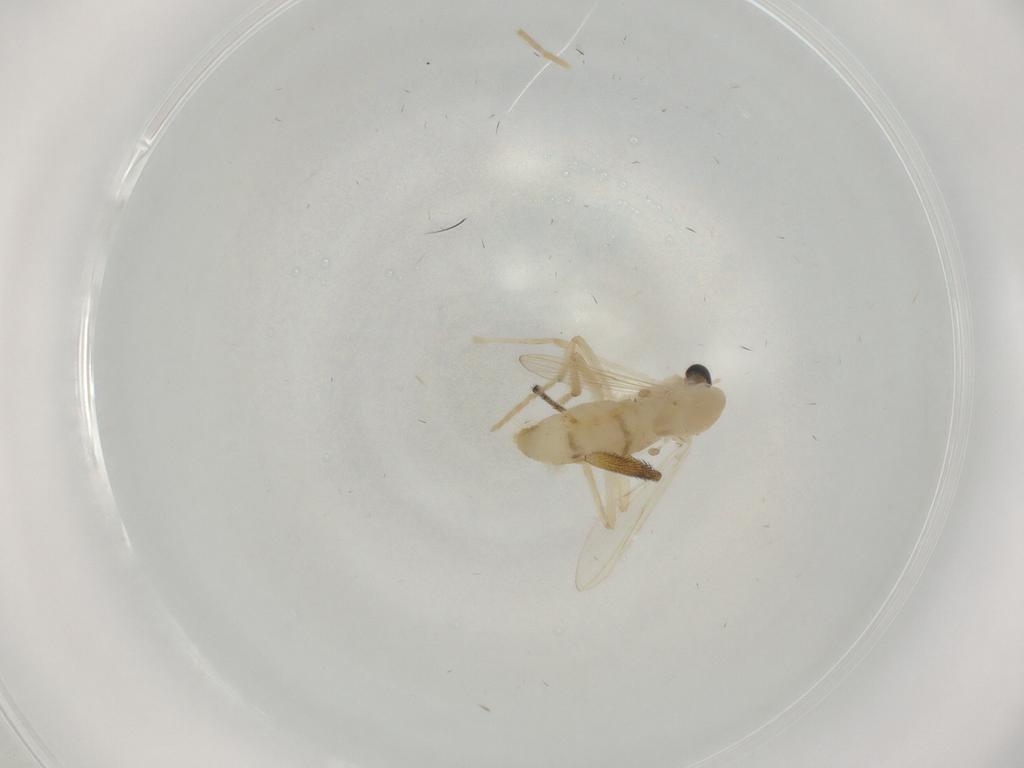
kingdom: Animalia
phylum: Arthropoda
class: Insecta
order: Diptera
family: Chironomidae
